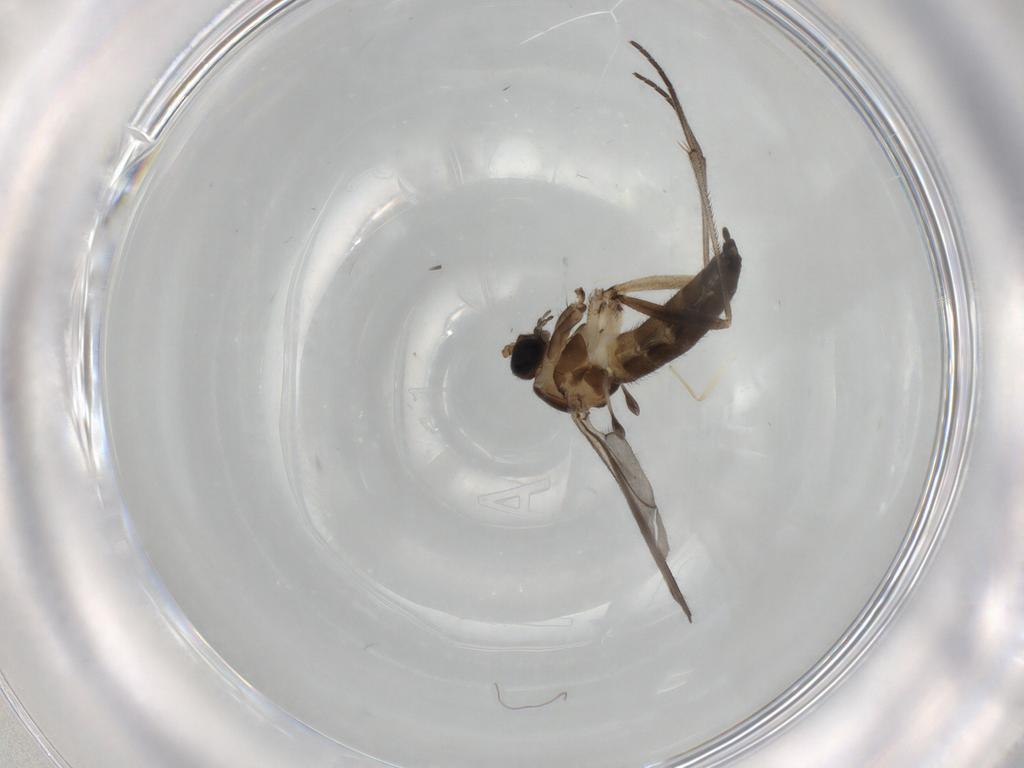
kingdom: Animalia
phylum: Arthropoda
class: Insecta
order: Diptera
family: Sciaridae
